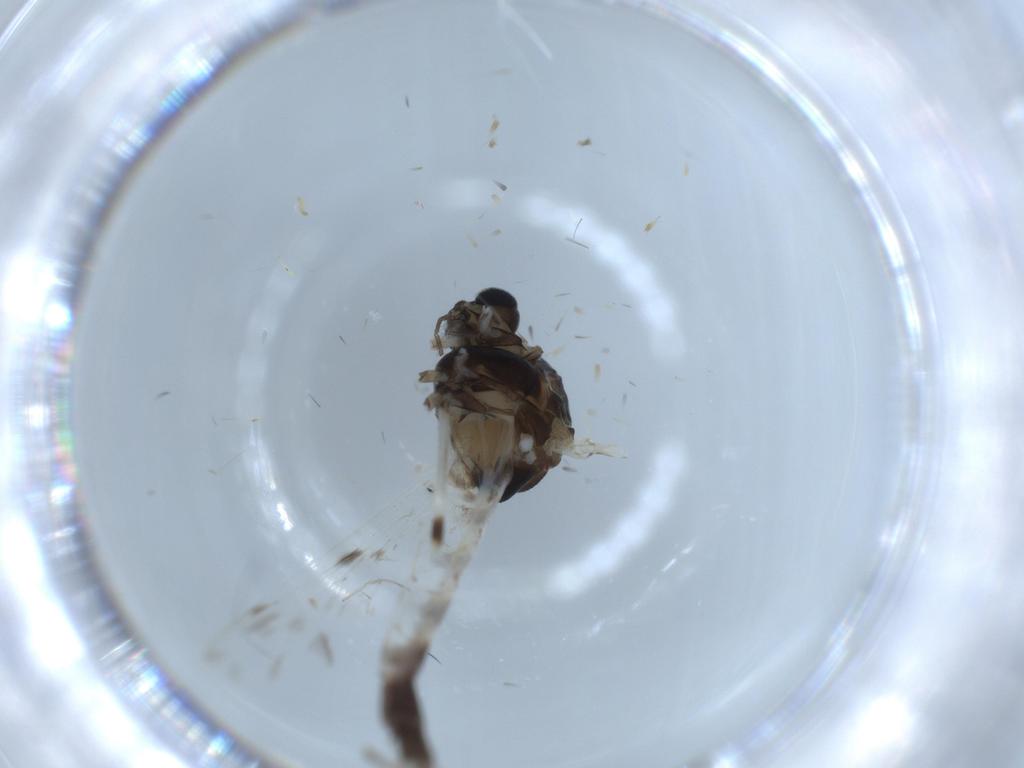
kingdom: Animalia
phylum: Arthropoda
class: Insecta
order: Diptera
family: Chironomidae
